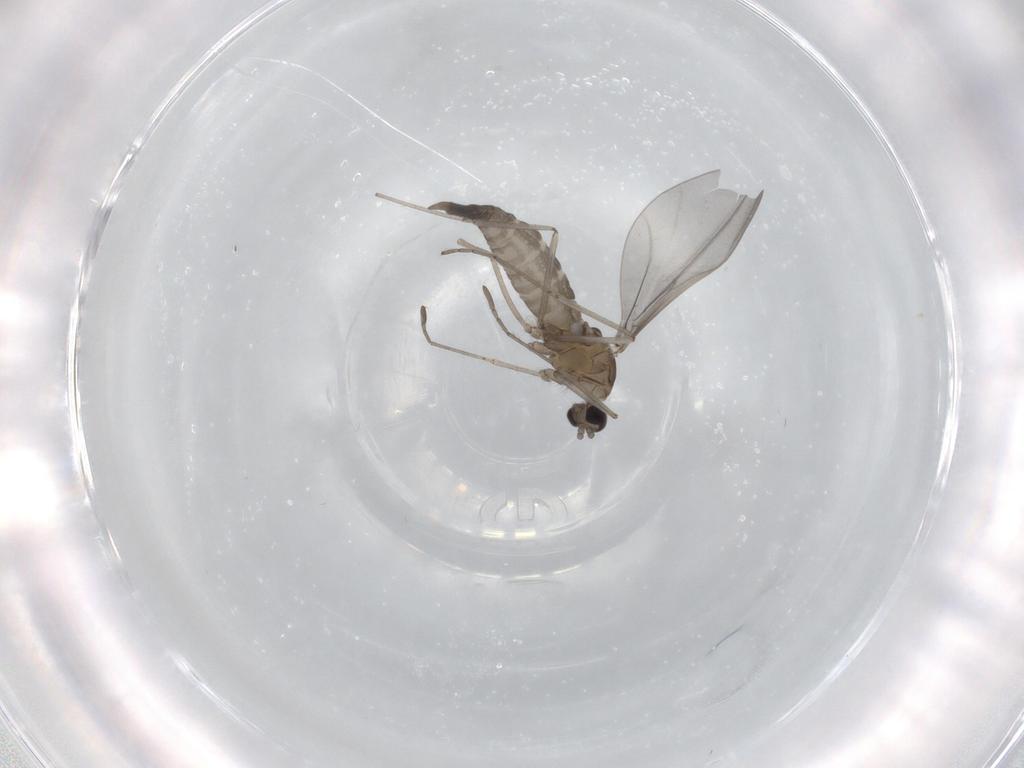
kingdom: Animalia
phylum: Arthropoda
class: Insecta
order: Diptera
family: Cecidomyiidae
